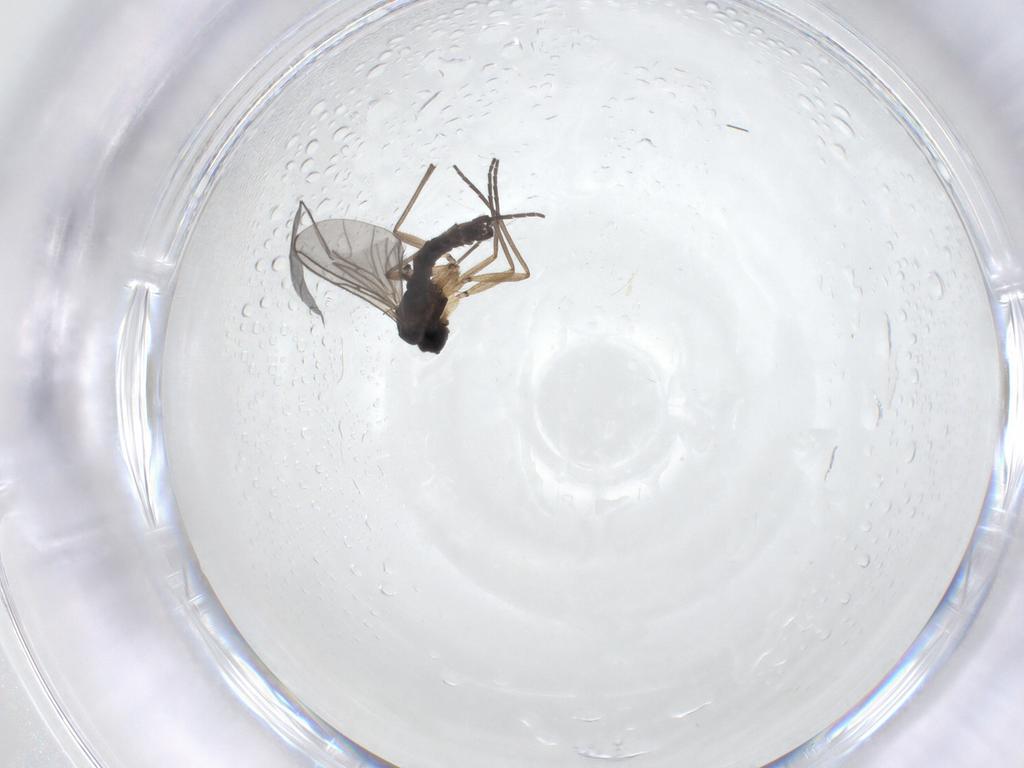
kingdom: Animalia
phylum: Arthropoda
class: Insecta
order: Diptera
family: Sciaridae
